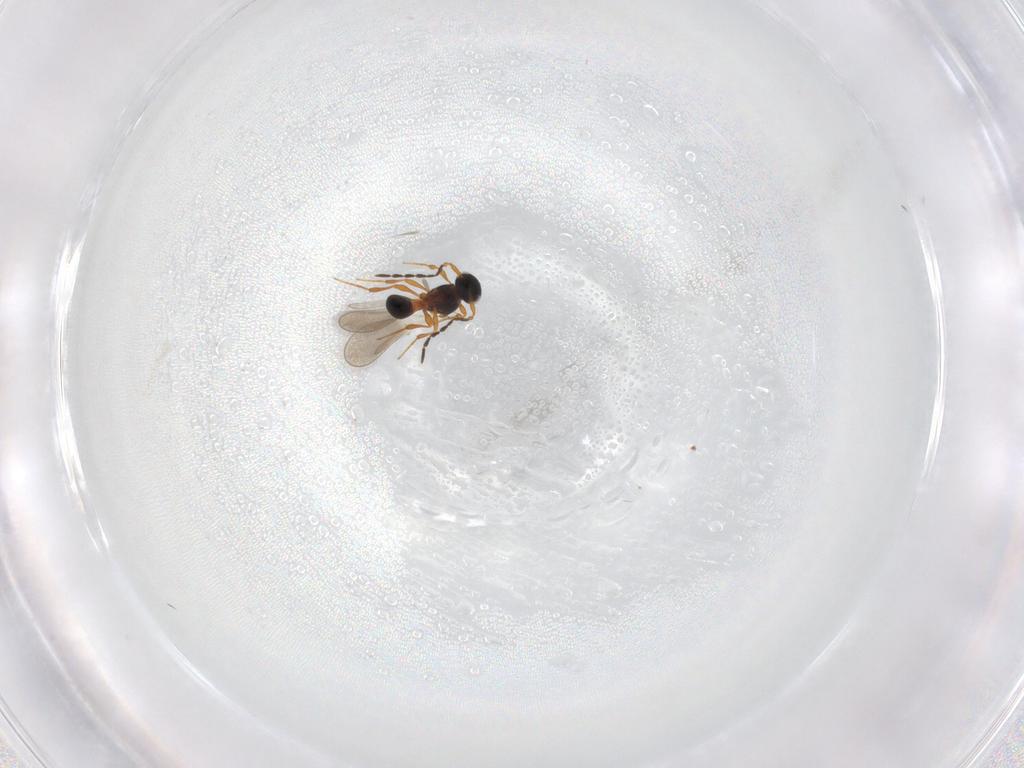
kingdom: Animalia
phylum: Arthropoda
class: Insecta
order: Hymenoptera
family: Platygastridae
